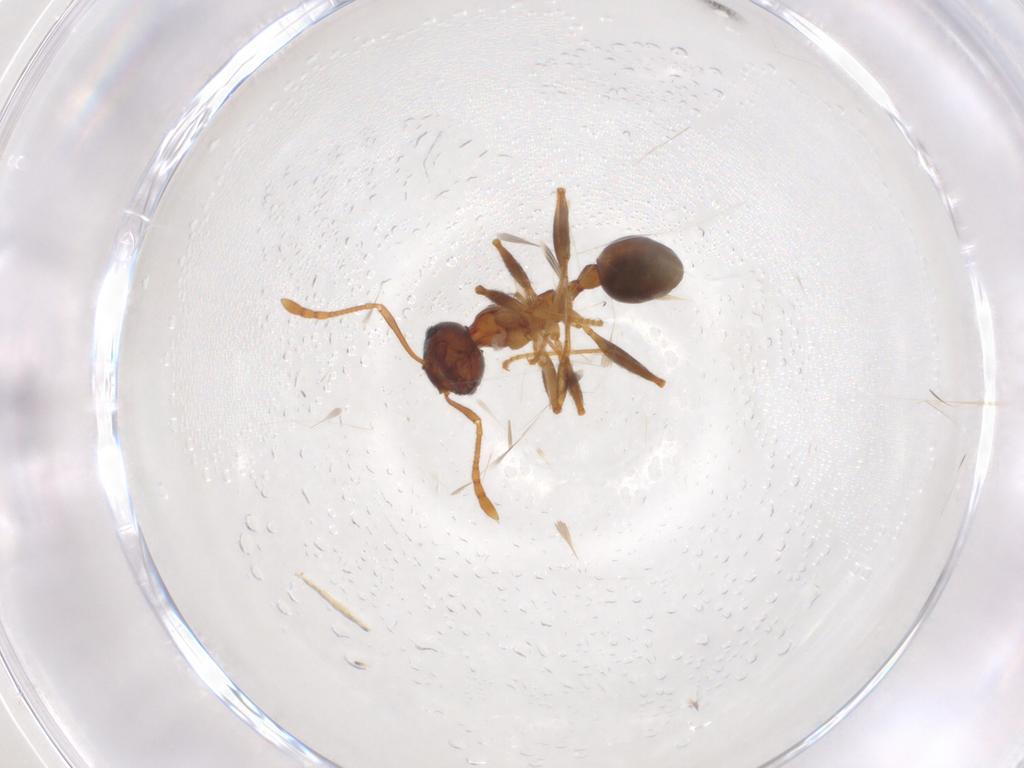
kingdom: Animalia
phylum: Arthropoda
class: Insecta
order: Hymenoptera
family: Formicidae
